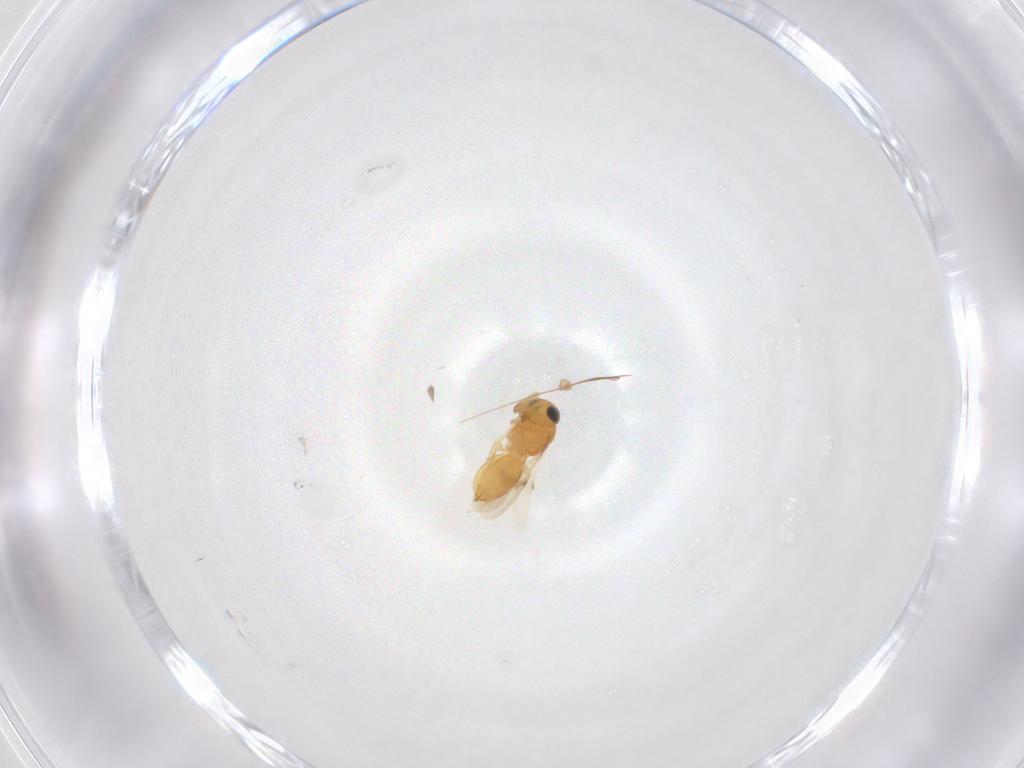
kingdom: Animalia
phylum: Arthropoda
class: Insecta
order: Hymenoptera
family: Scelionidae
